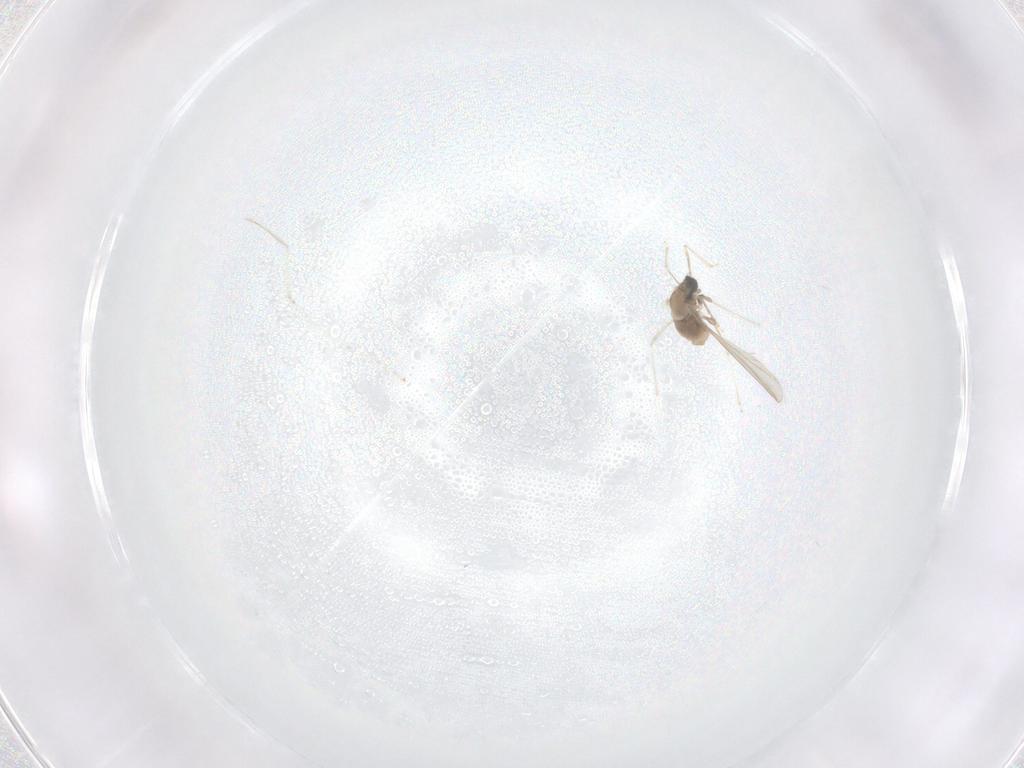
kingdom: Animalia
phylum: Arthropoda
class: Insecta
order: Diptera
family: Cecidomyiidae
